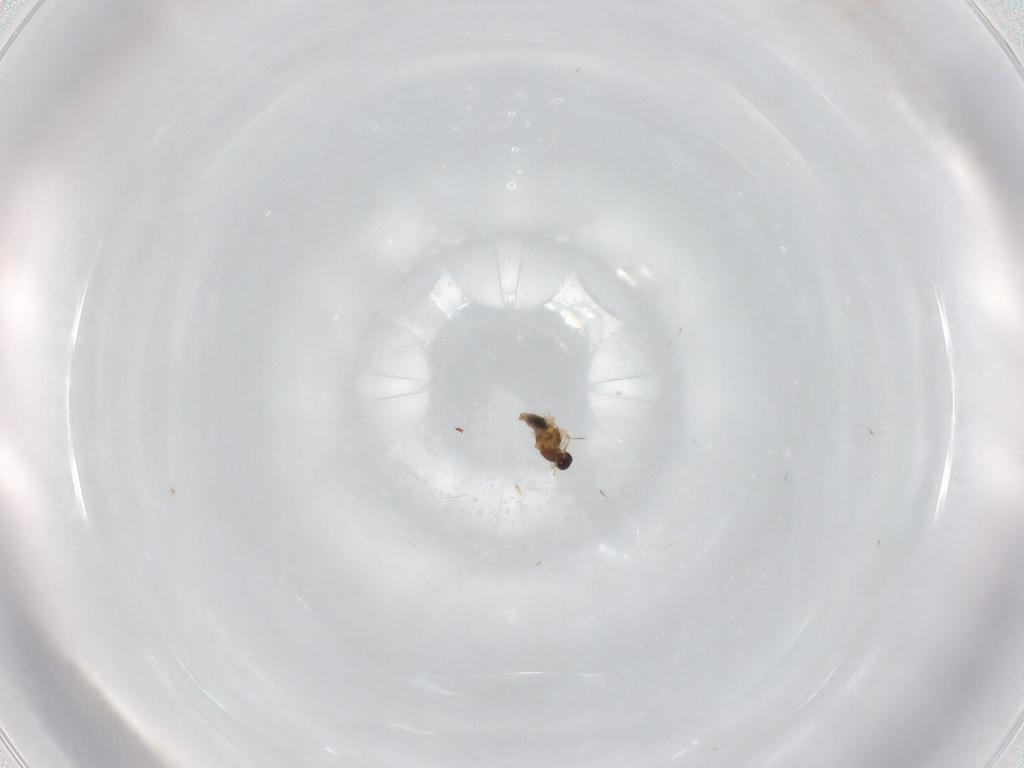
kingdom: Animalia
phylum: Arthropoda
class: Insecta
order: Diptera
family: Cecidomyiidae
